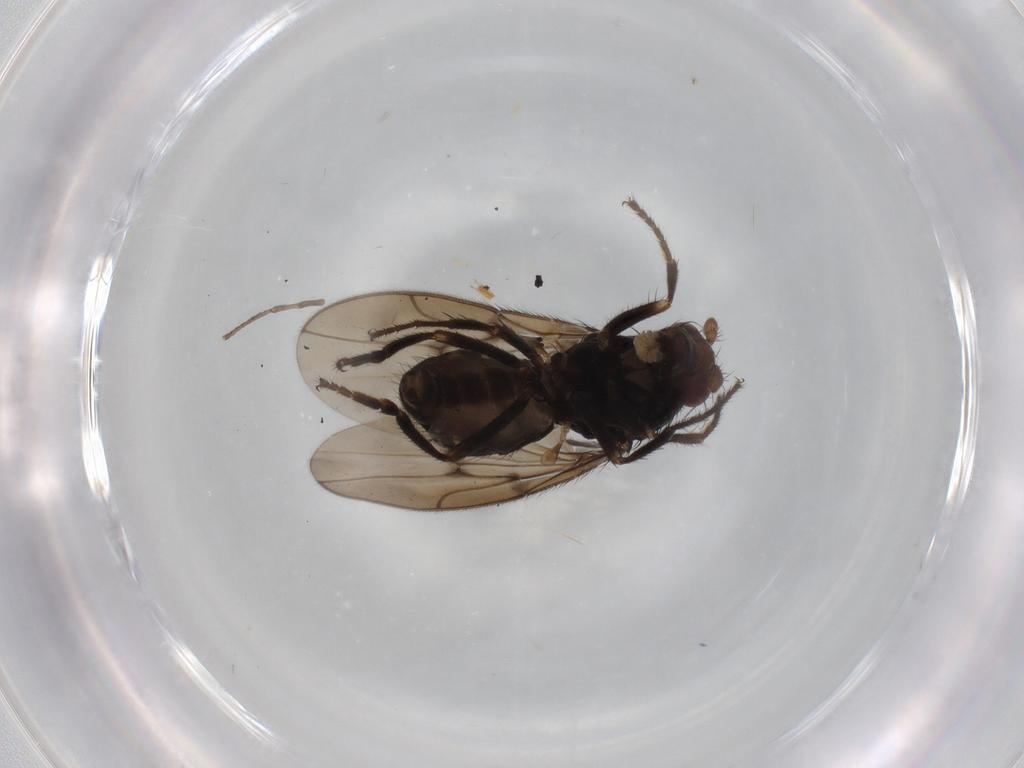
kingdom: Animalia
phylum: Arthropoda
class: Insecta
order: Diptera
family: Sphaeroceridae
